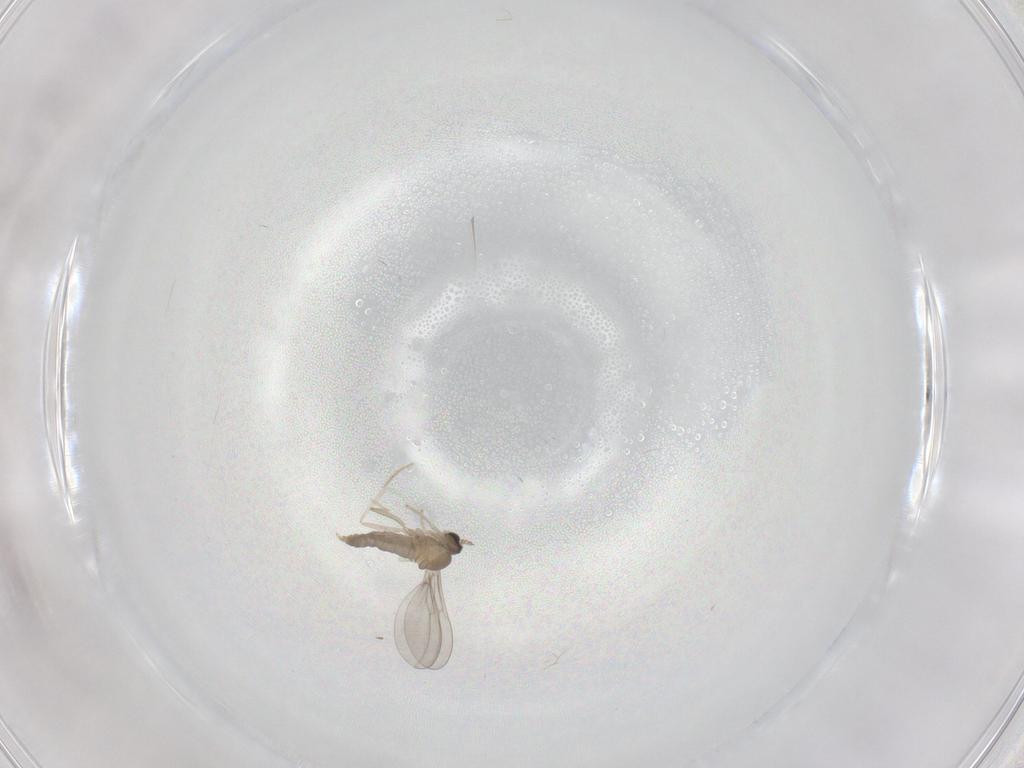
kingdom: Animalia
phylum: Arthropoda
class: Insecta
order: Diptera
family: Cecidomyiidae
